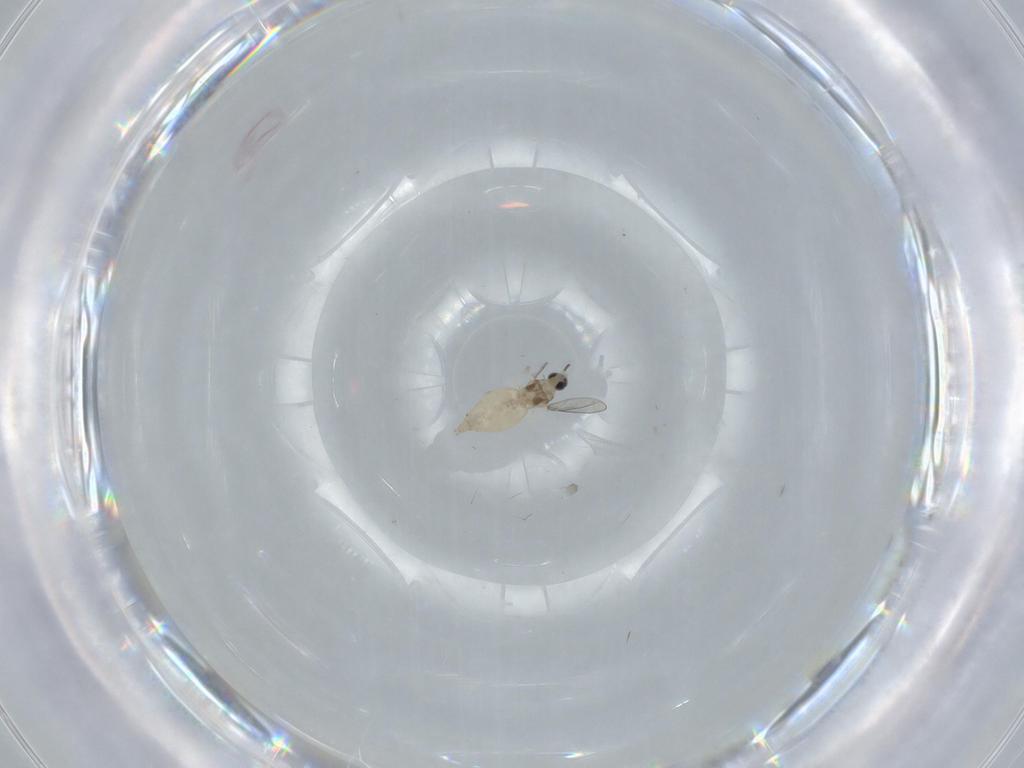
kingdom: Animalia
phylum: Arthropoda
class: Insecta
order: Diptera
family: Cecidomyiidae
